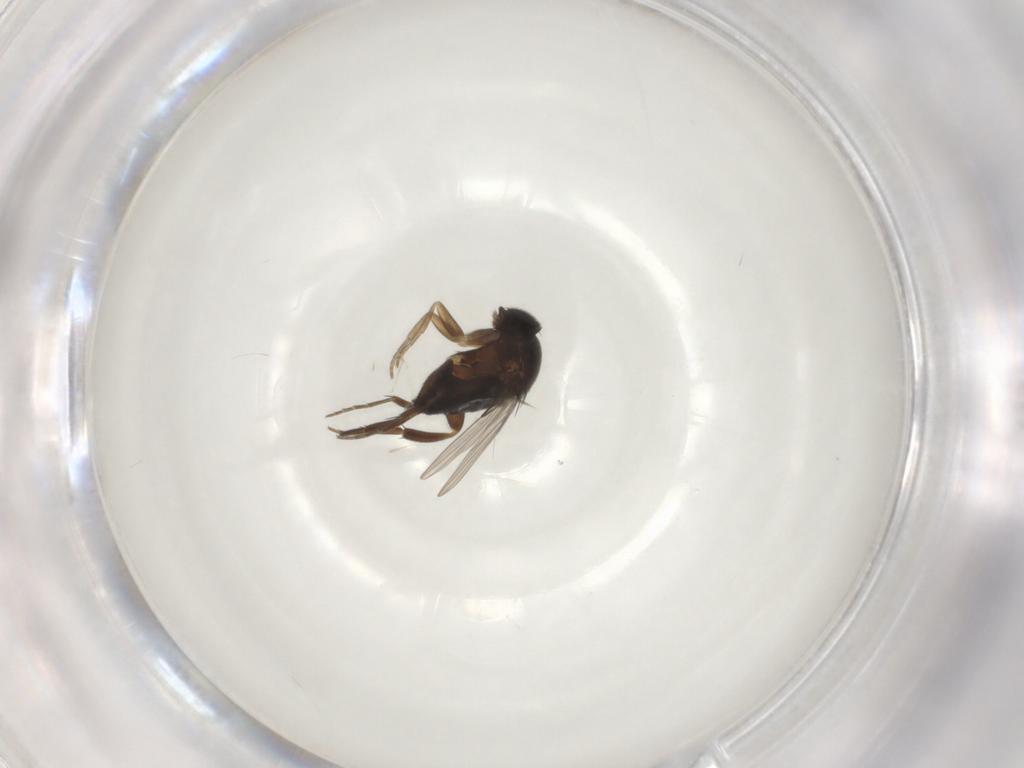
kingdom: Animalia
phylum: Arthropoda
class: Insecta
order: Diptera
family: Phoridae
